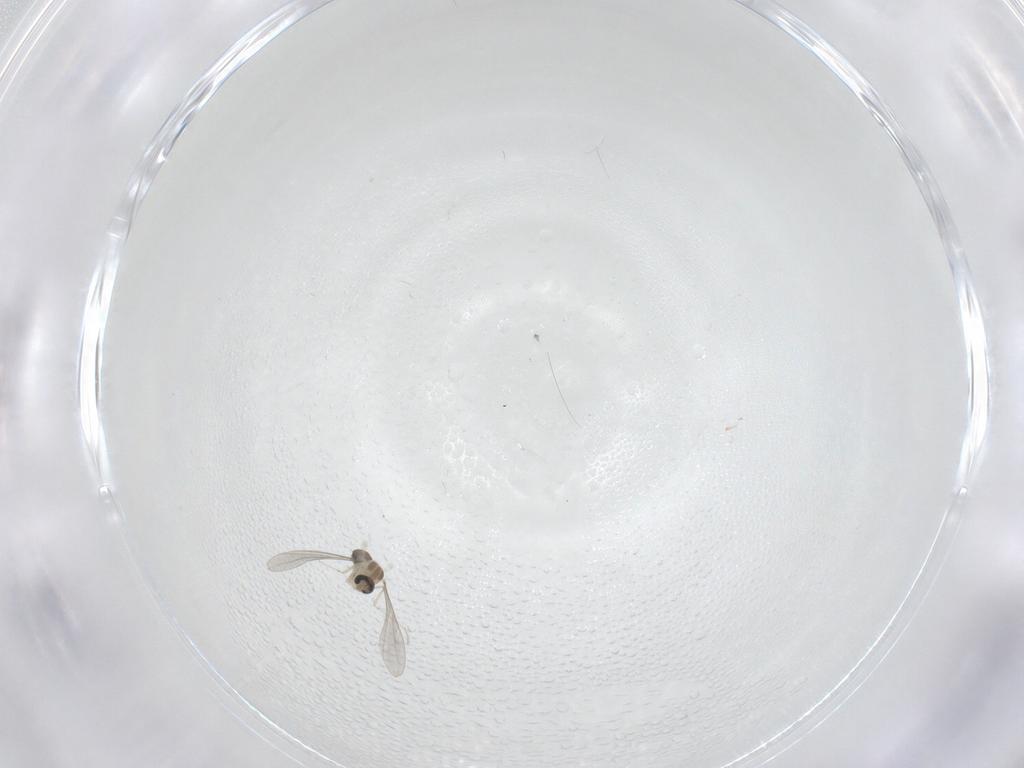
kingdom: Animalia
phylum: Arthropoda
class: Insecta
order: Diptera
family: Cecidomyiidae
